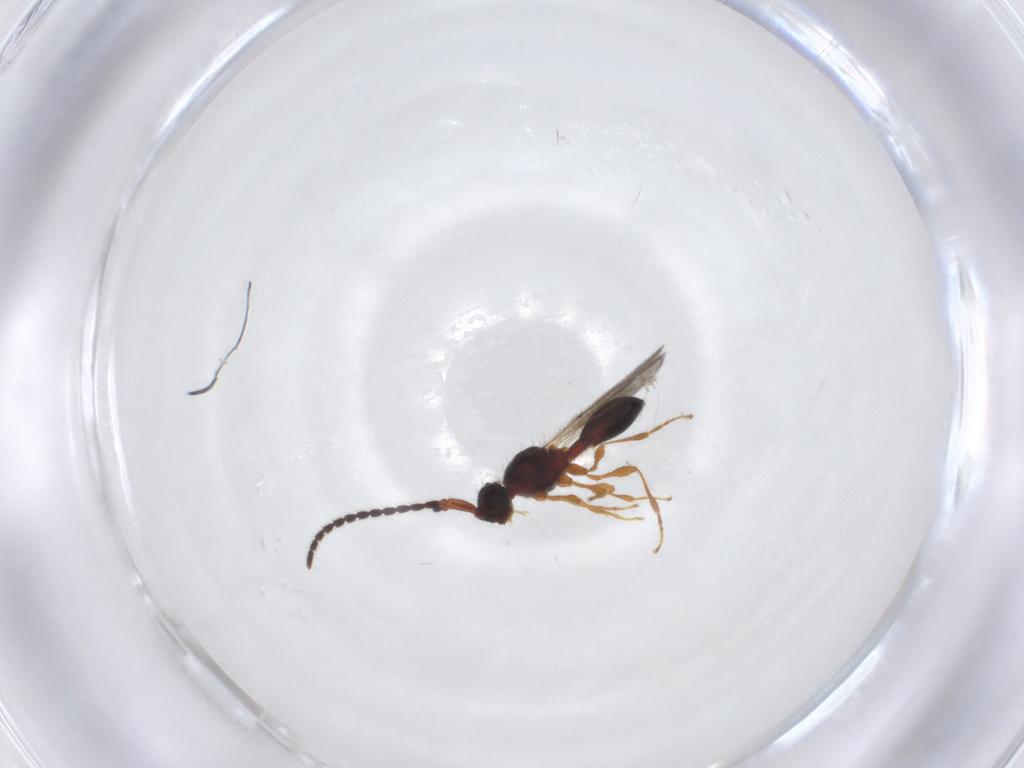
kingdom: Animalia
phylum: Arthropoda
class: Insecta
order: Hymenoptera
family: Diapriidae
